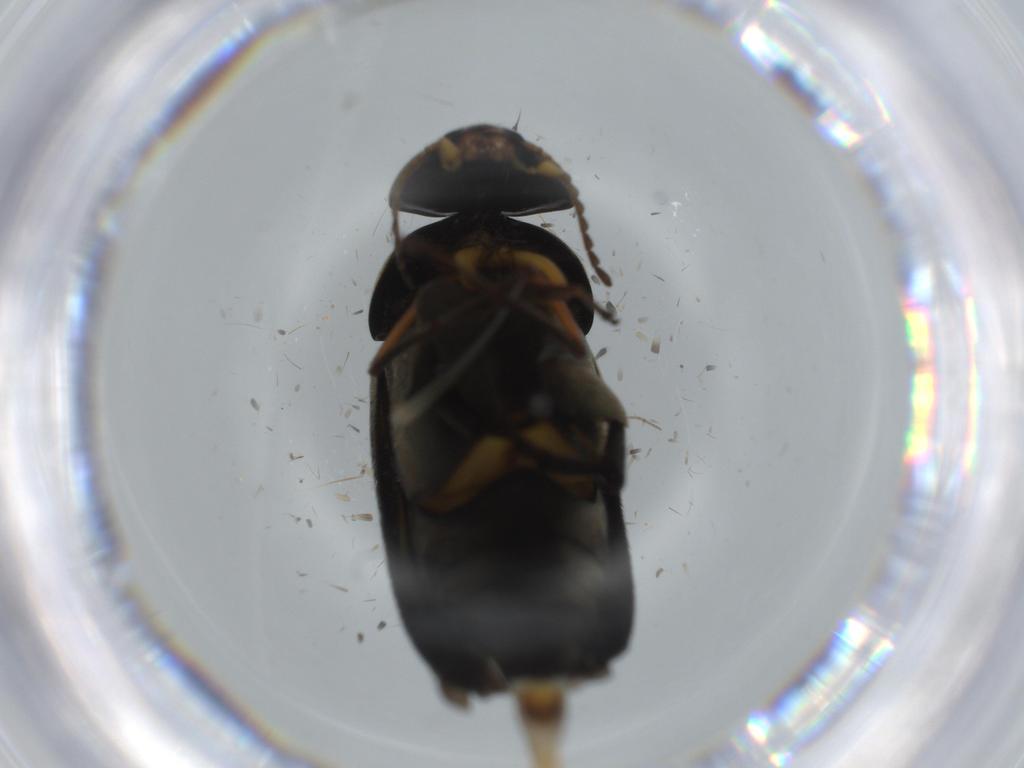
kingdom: Animalia
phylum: Arthropoda
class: Insecta
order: Coleoptera
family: Mordellidae
